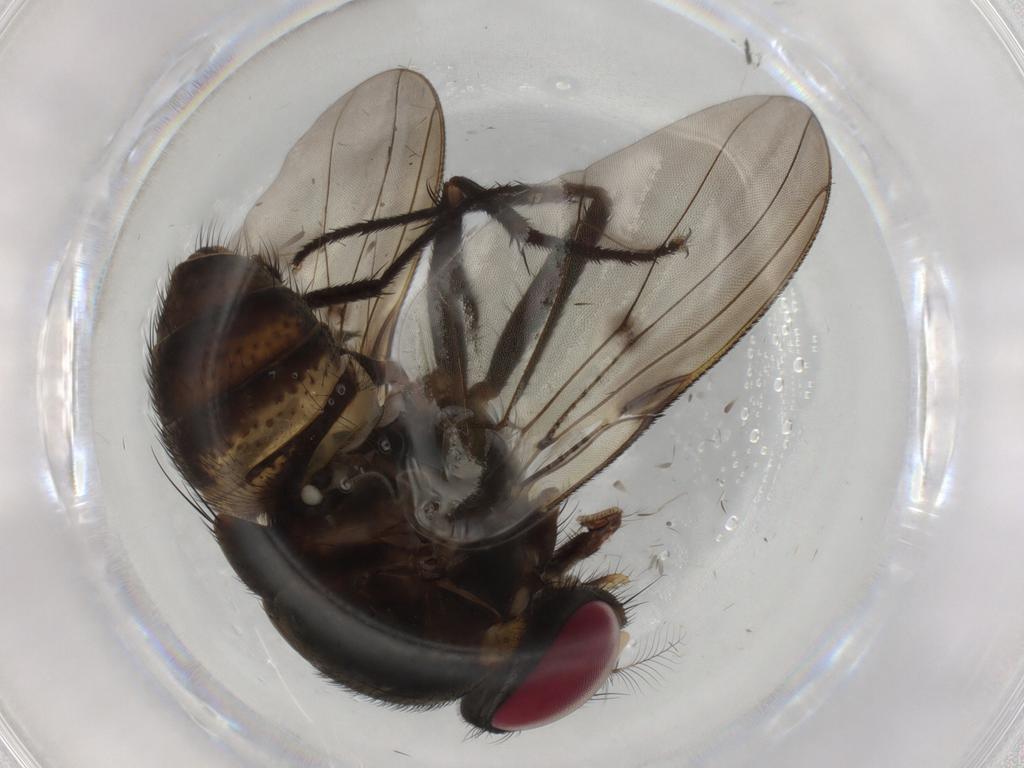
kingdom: Animalia
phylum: Arthropoda
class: Insecta
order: Diptera
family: Muscidae
